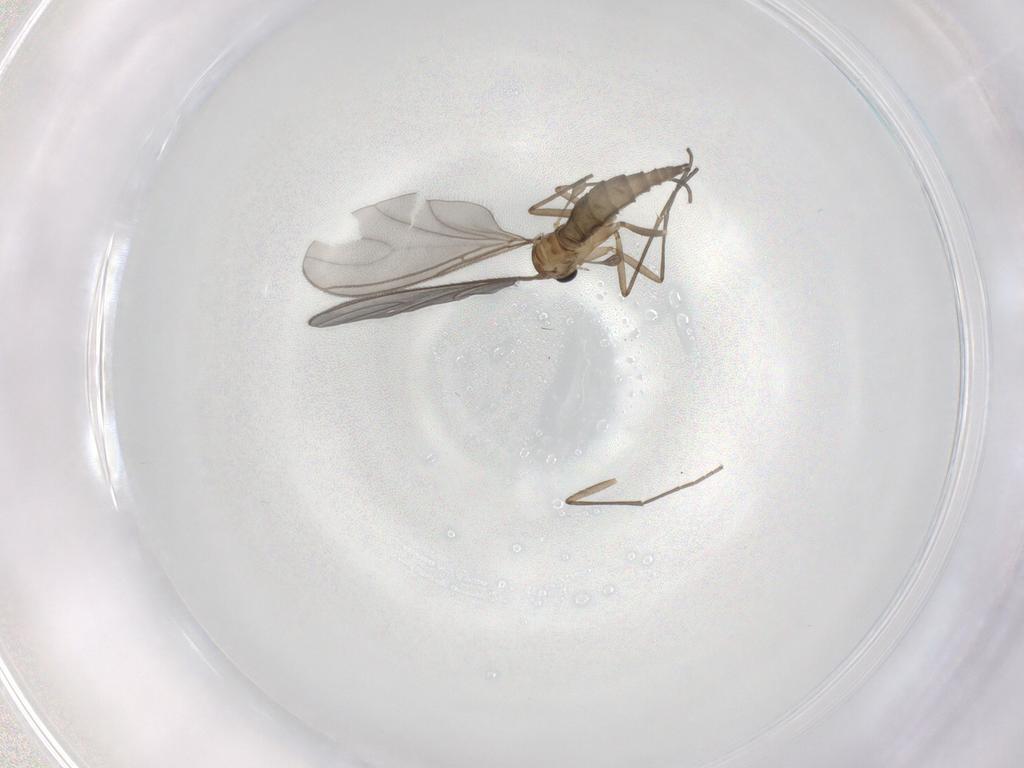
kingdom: Animalia
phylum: Arthropoda
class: Insecta
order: Diptera
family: Sciaridae
